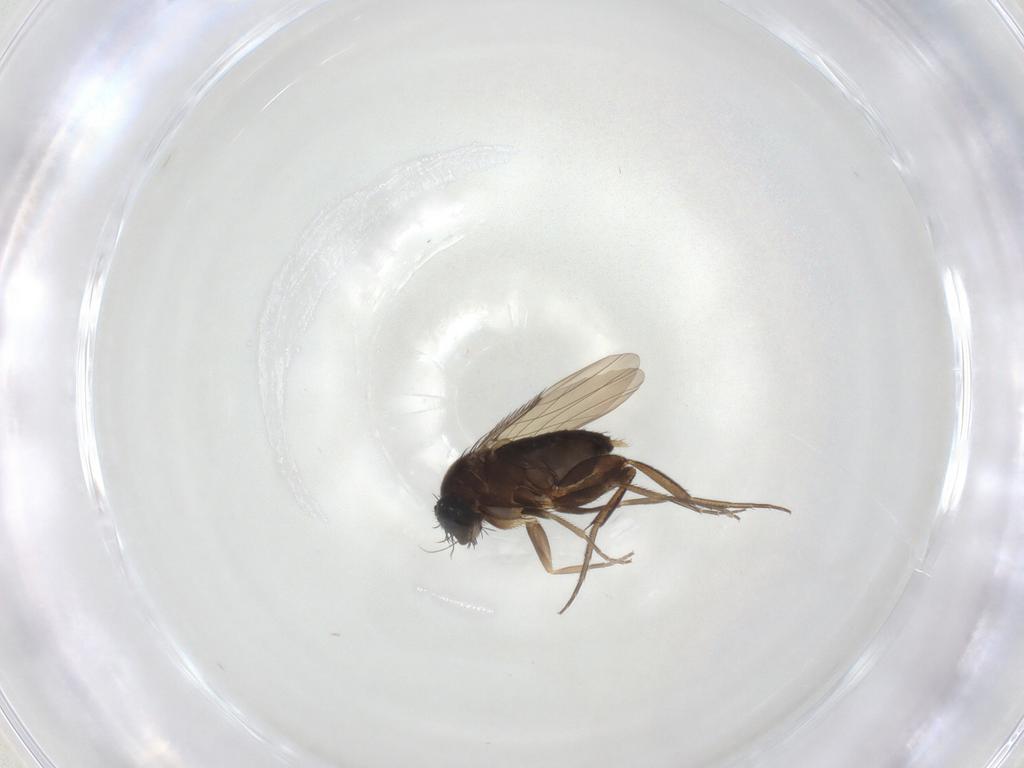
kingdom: Animalia
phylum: Arthropoda
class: Insecta
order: Diptera
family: Phoridae
